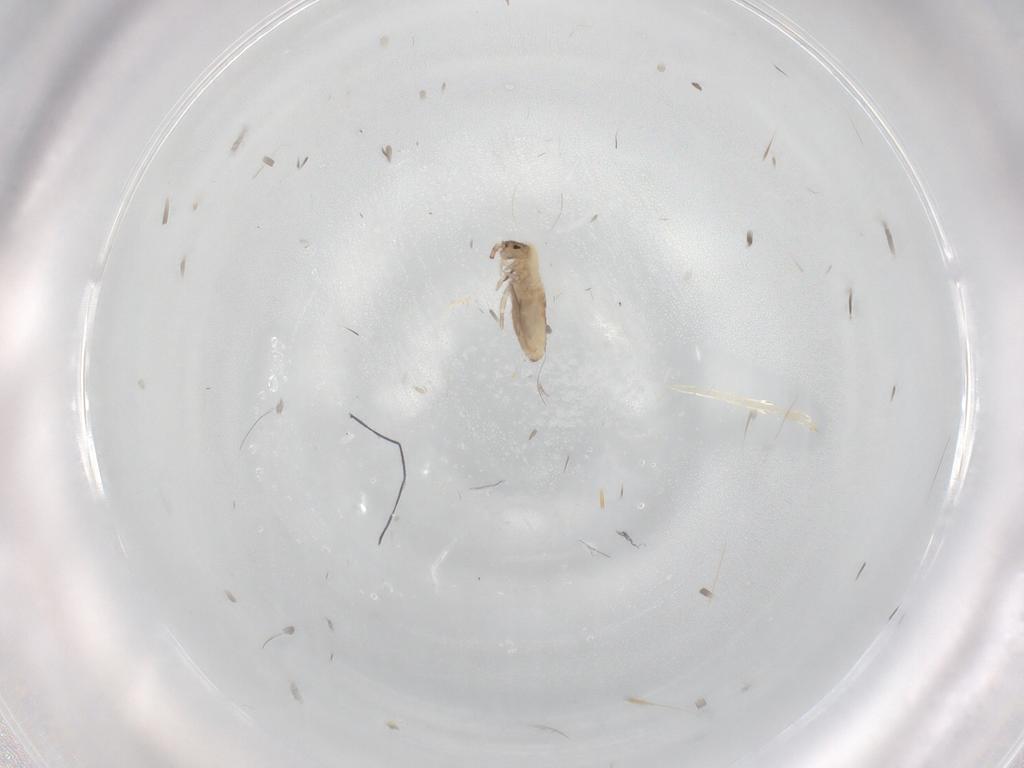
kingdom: Animalia
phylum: Arthropoda
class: Collembola
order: Entomobryomorpha
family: Entomobryidae
